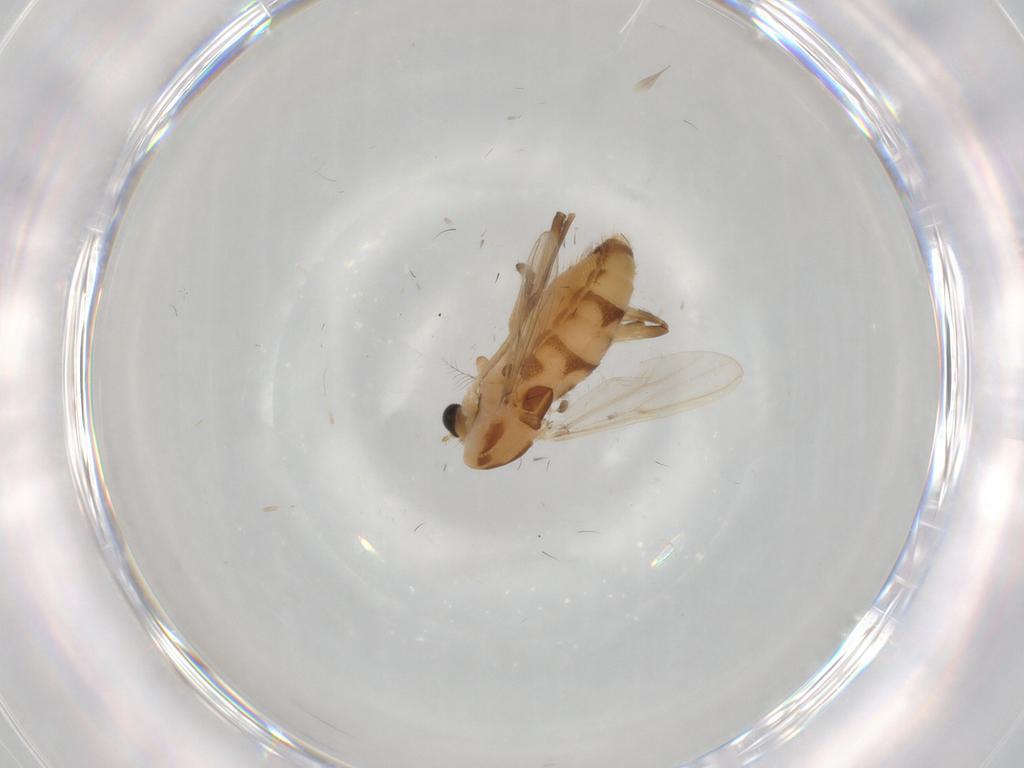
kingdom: Animalia
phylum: Arthropoda
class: Insecta
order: Diptera
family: Chironomidae
